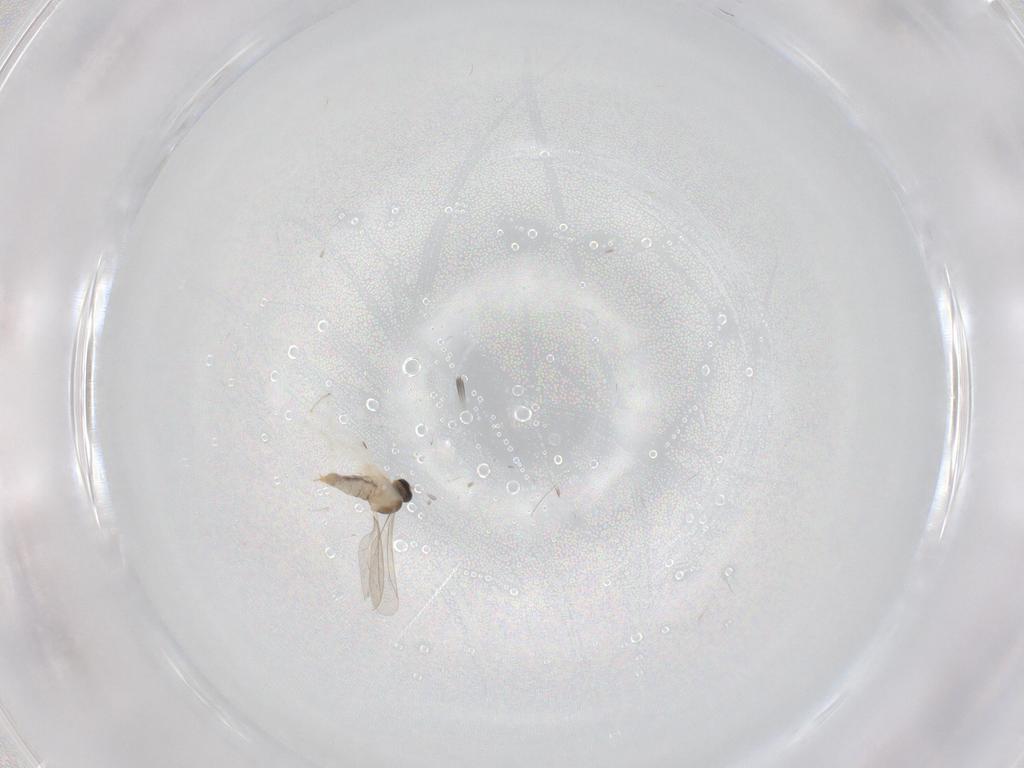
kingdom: Animalia
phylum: Arthropoda
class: Insecta
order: Diptera
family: Cecidomyiidae
